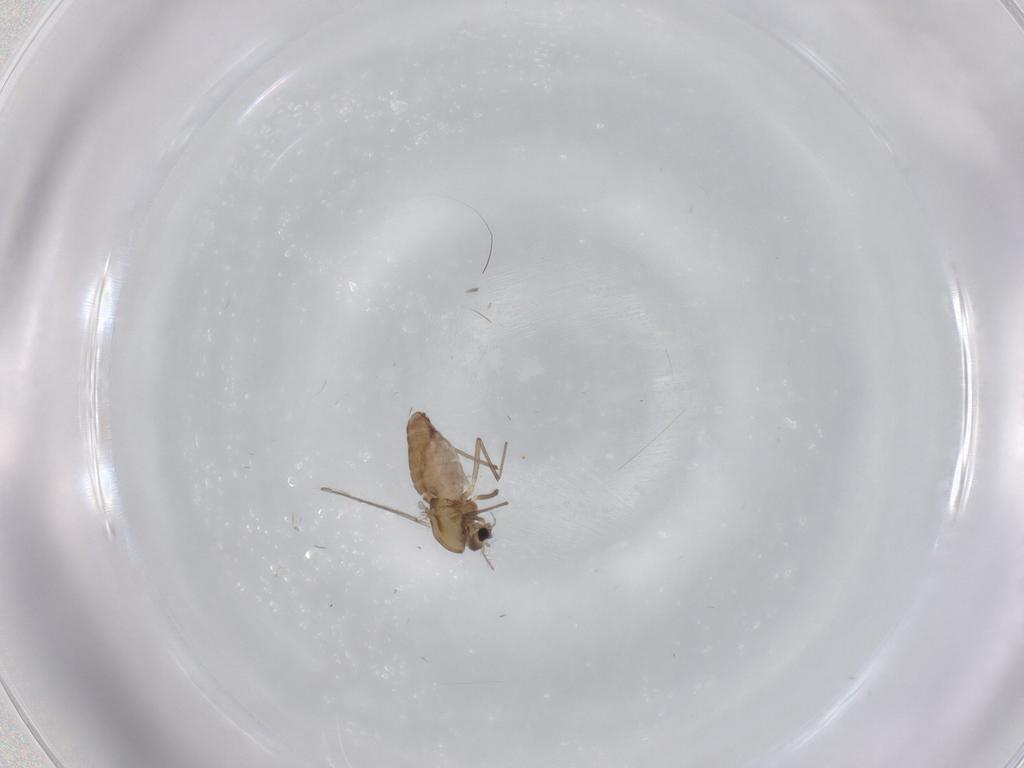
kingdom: Animalia
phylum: Arthropoda
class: Insecta
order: Diptera
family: Chironomidae
